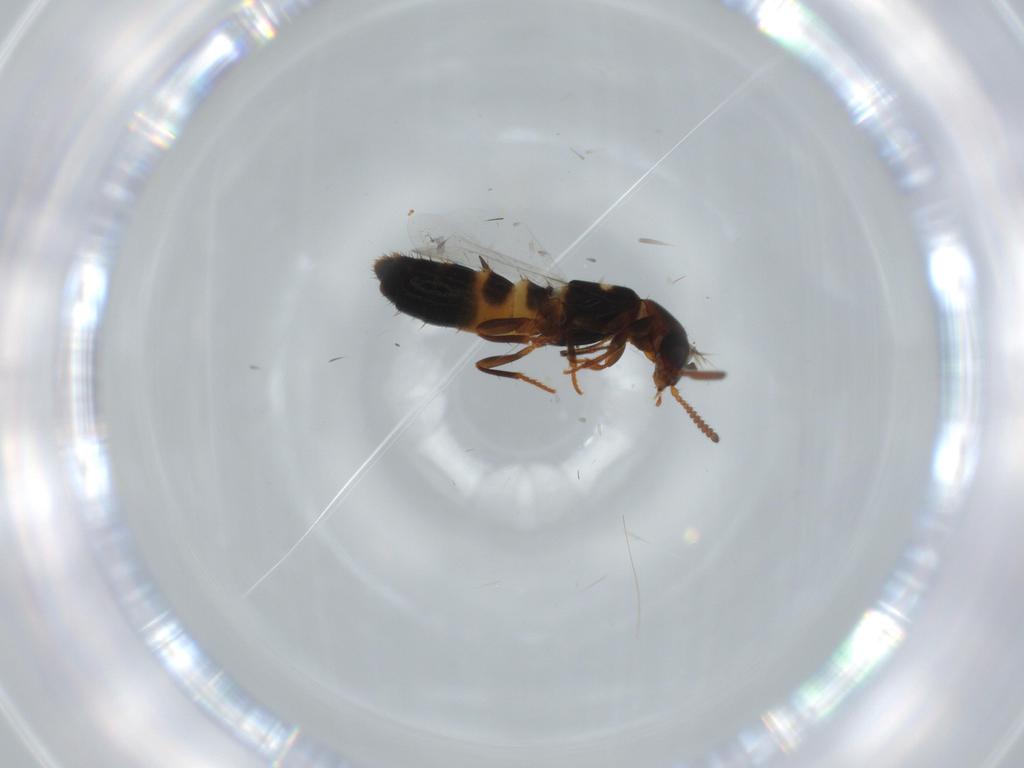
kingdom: Animalia
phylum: Arthropoda
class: Insecta
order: Coleoptera
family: Staphylinidae
